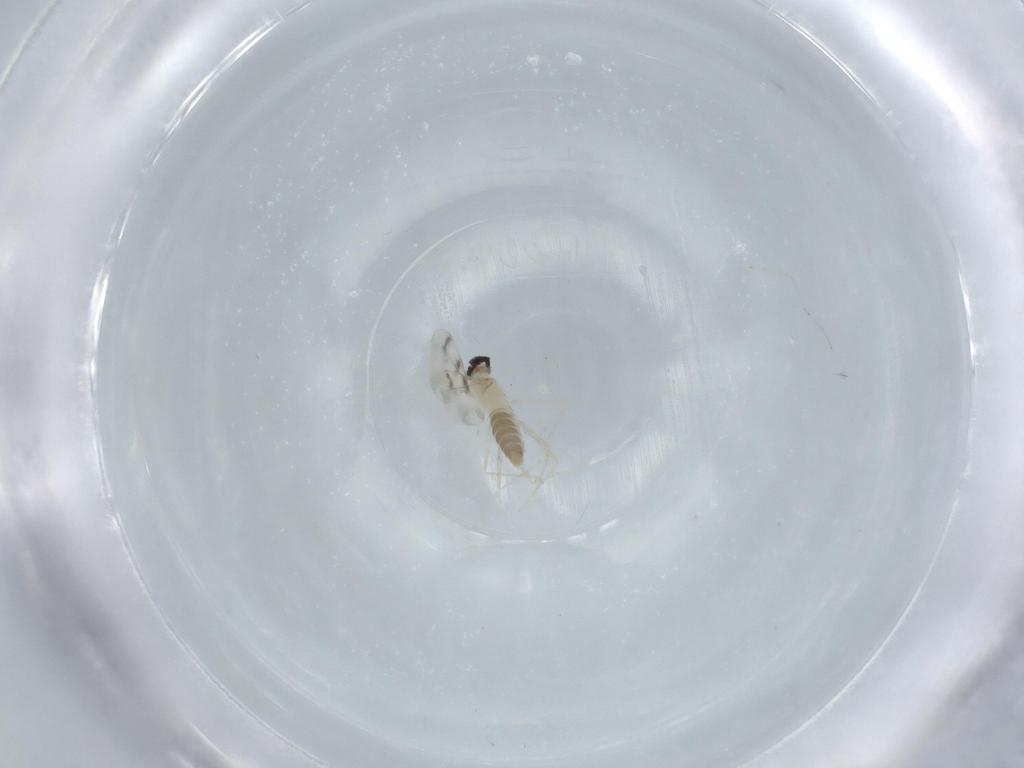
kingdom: Animalia
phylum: Arthropoda
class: Insecta
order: Diptera
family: Cecidomyiidae
